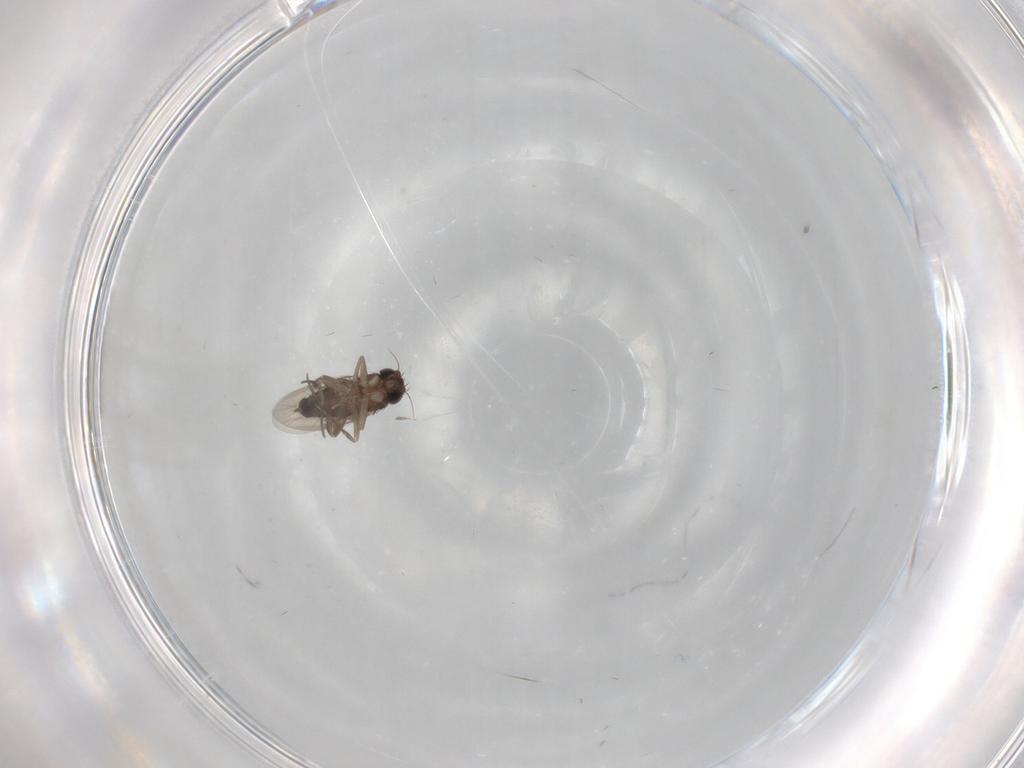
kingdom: Animalia
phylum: Arthropoda
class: Insecta
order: Diptera
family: Phoridae
